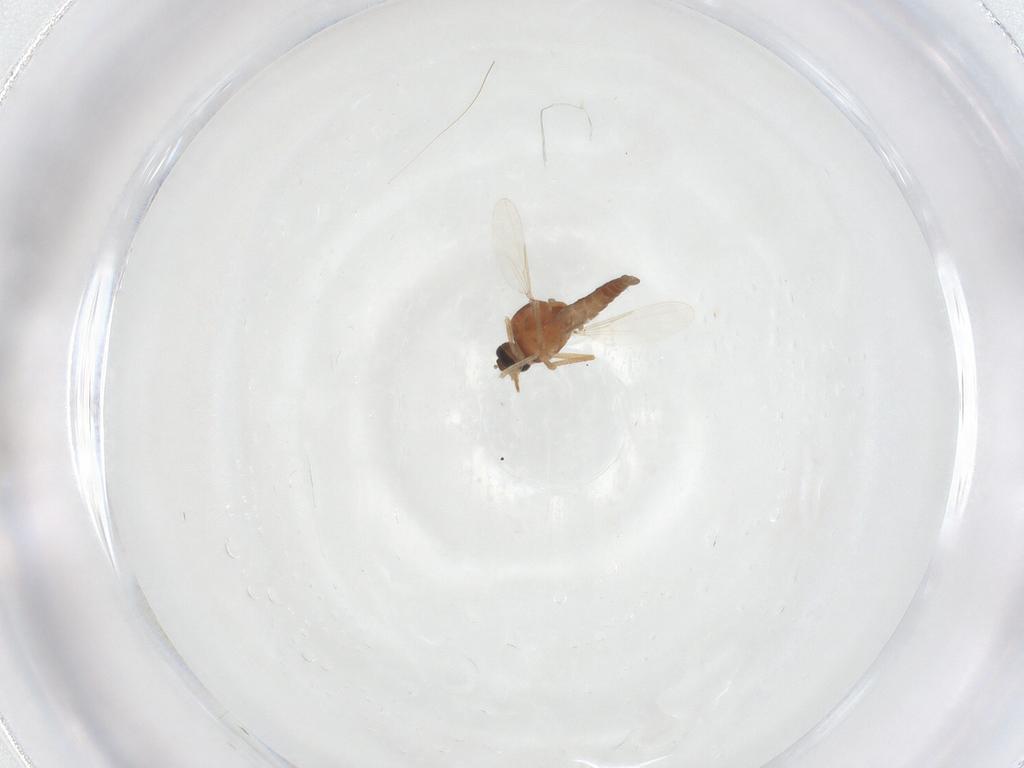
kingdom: Animalia
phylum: Arthropoda
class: Insecta
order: Diptera
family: Ceratopogonidae
